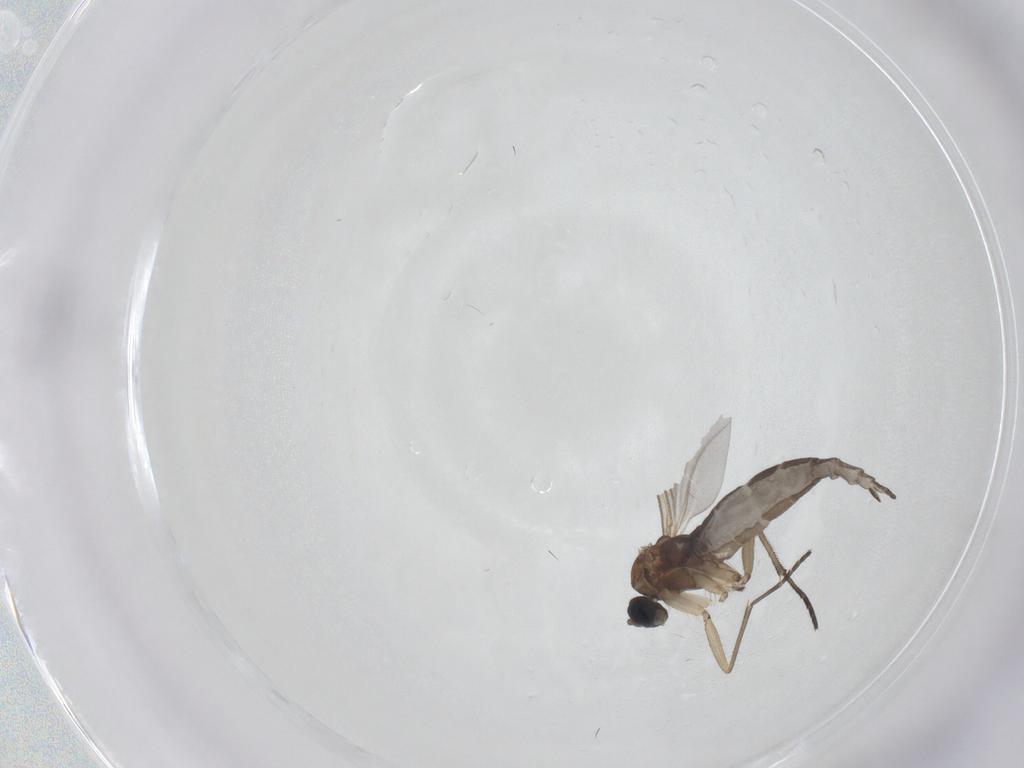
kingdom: Animalia
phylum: Arthropoda
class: Insecta
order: Diptera
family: Sciaridae
